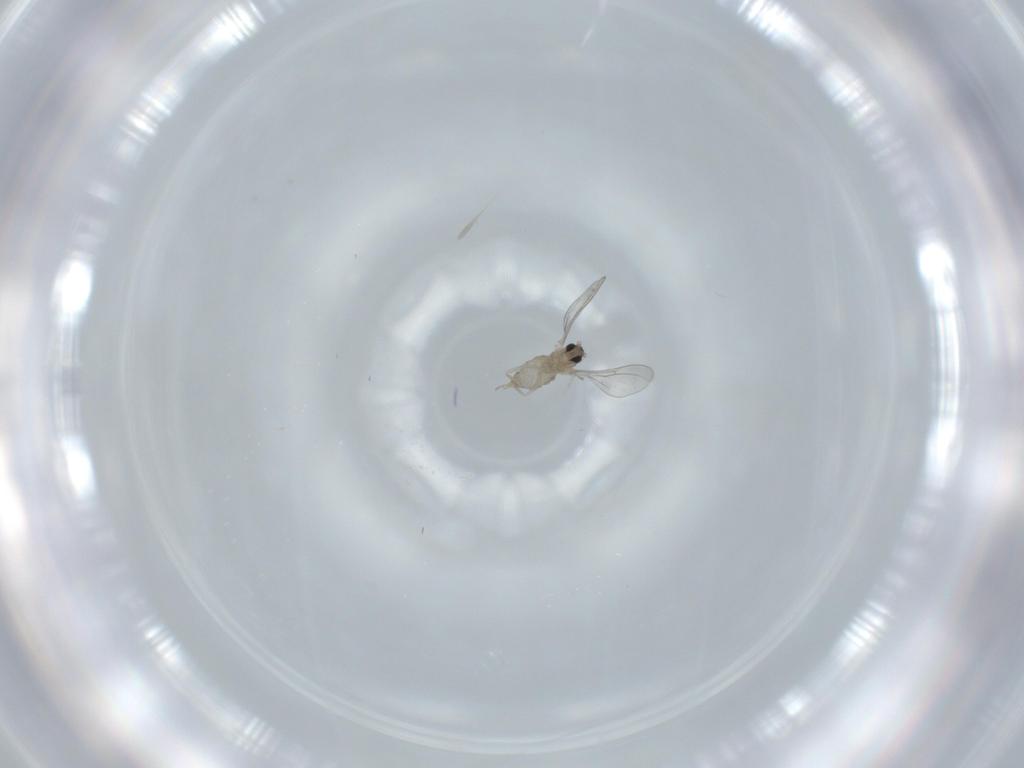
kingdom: Animalia
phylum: Arthropoda
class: Insecta
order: Diptera
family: Cecidomyiidae
